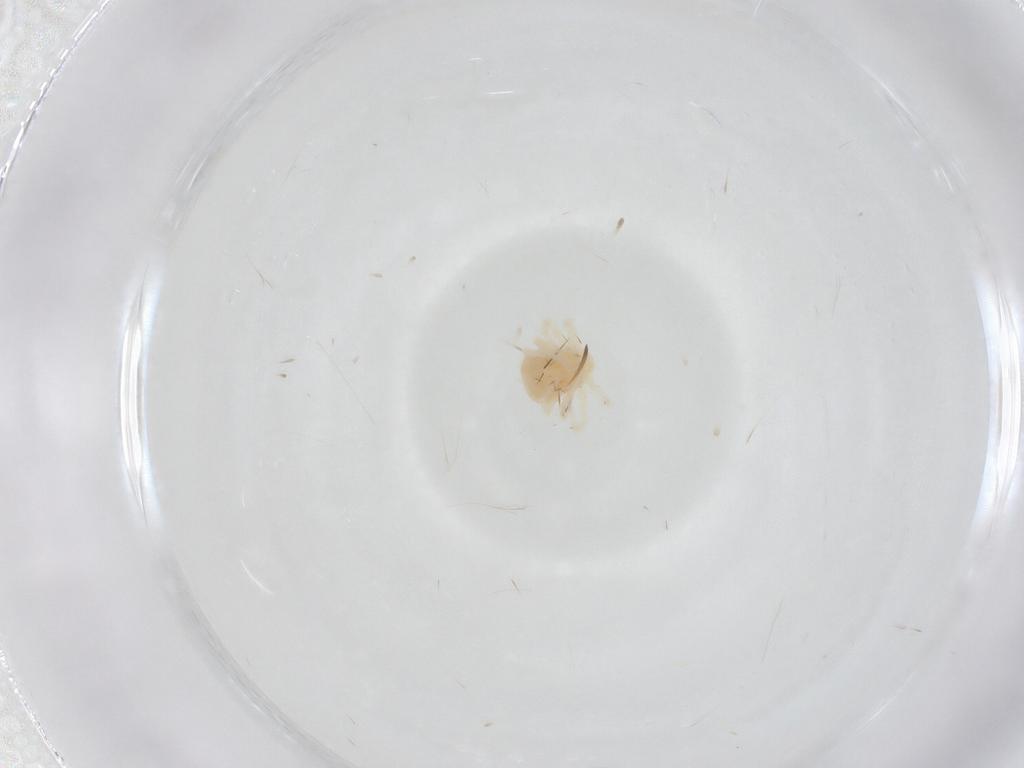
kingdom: Animalia
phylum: Arthropoda
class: Arachnida
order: Trombidiformes
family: Anystidae
